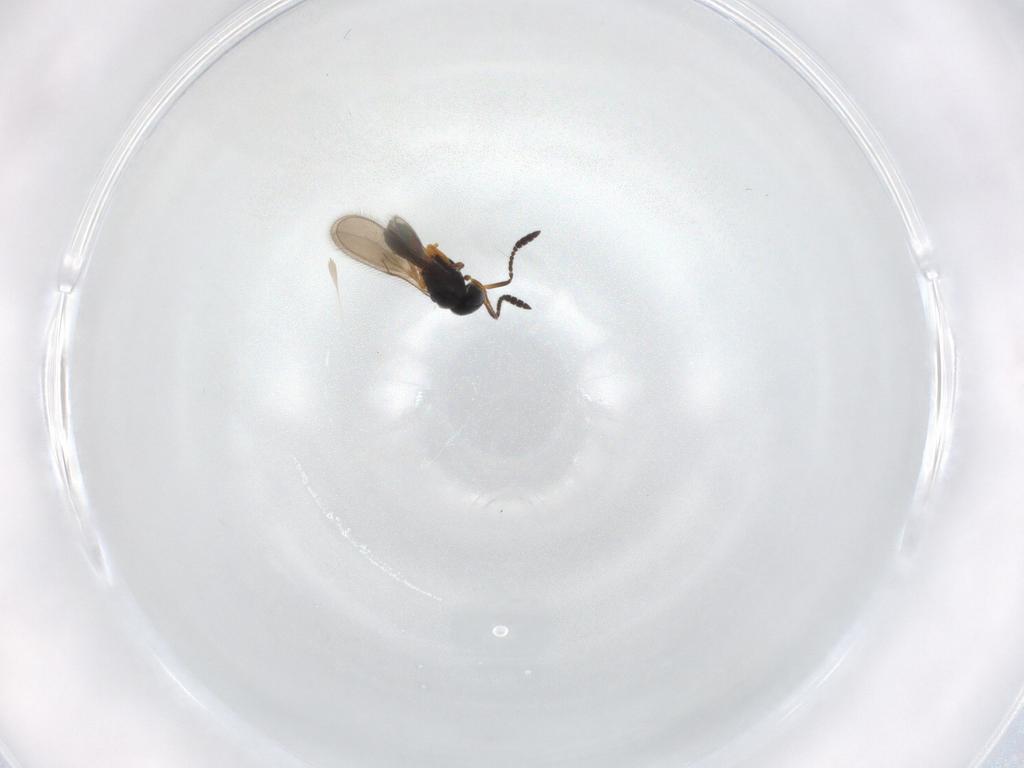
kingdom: Animalia
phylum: Arthropoda
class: Insecta
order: Hymenoptera
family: Scelionidae
